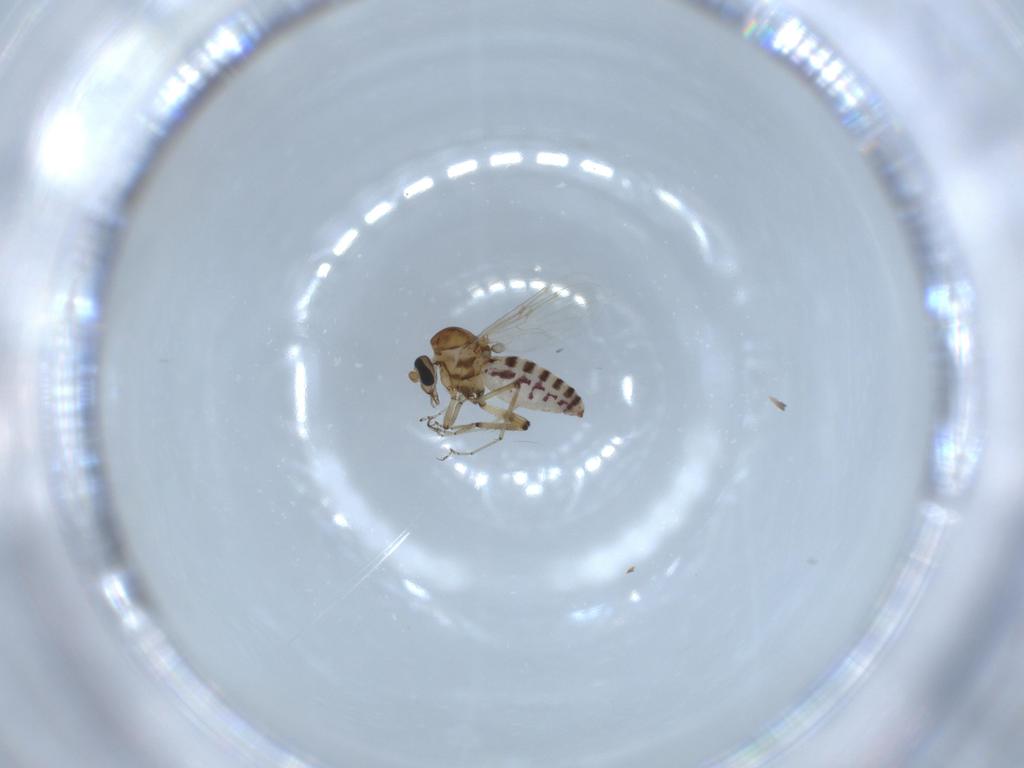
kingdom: Animalia
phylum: Arthropoda
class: Insecta
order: Diptera
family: Ceratopogonidae
